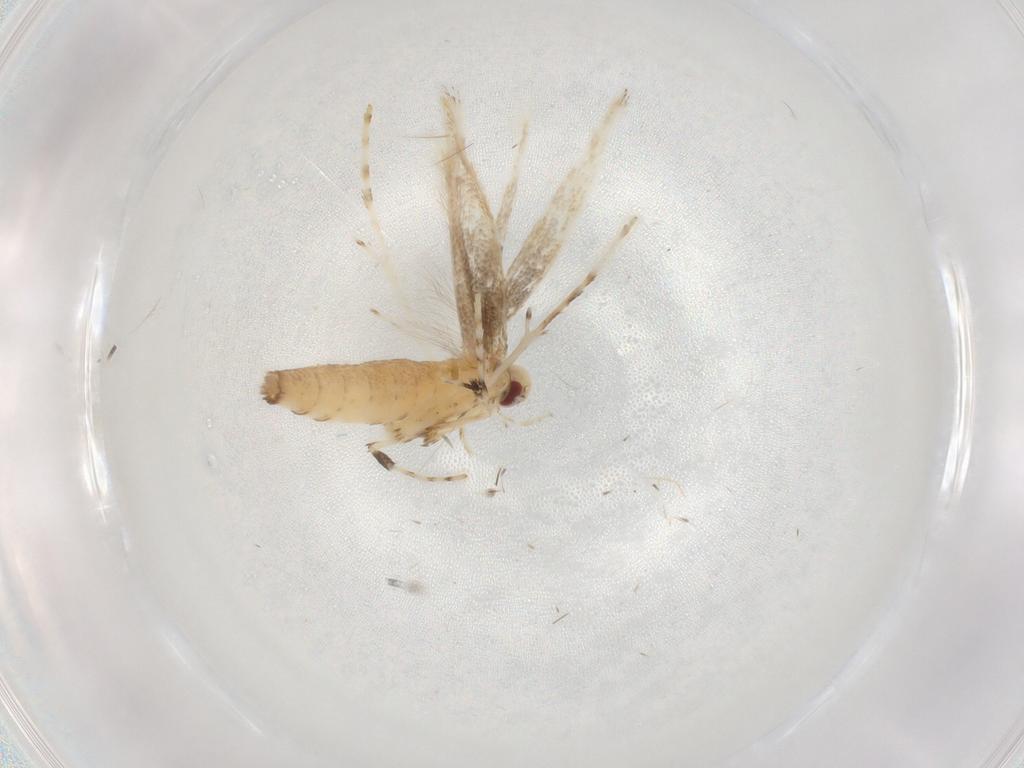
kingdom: Animalia
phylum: Arthropoda
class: Insecta
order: Lepidoptera
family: Gracillariidae
